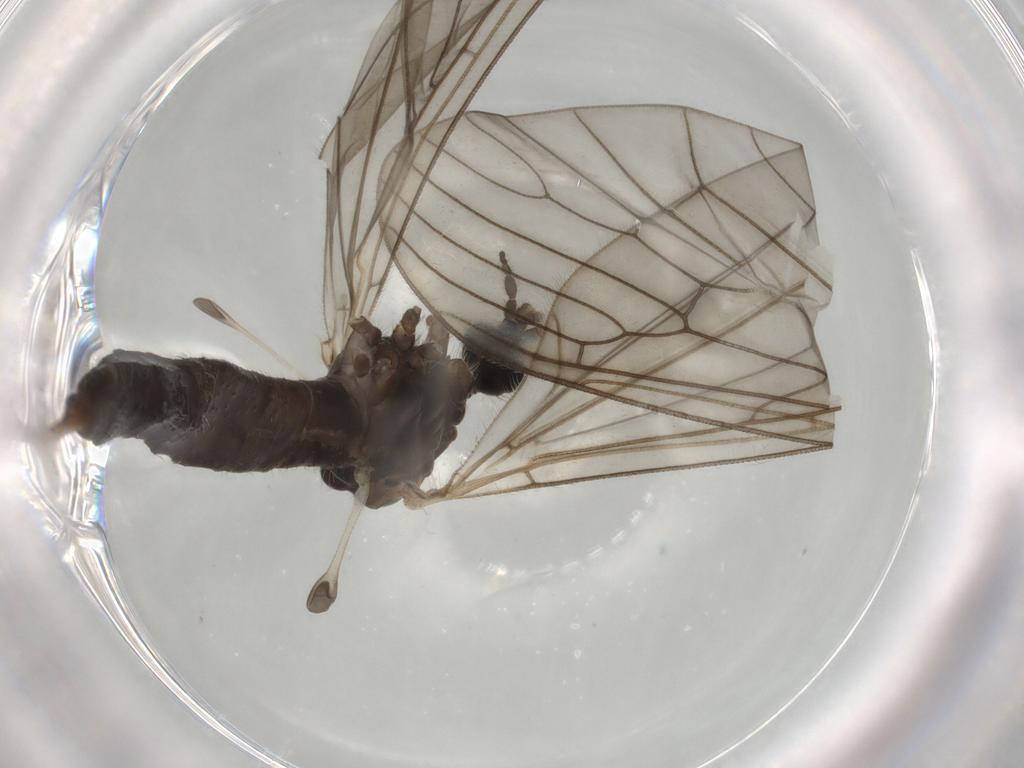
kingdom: Animalia
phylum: Arthropoda
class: Insecta
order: Diptera
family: Trichoceridae
